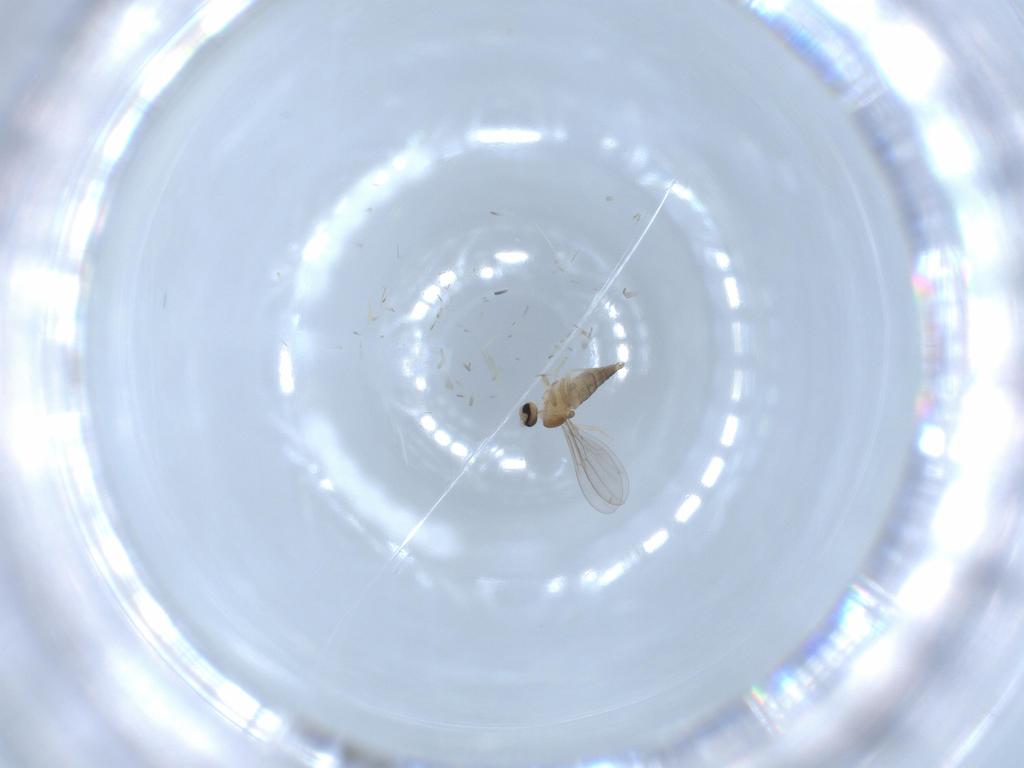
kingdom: Animalia
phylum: Arthropoda
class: Insecta
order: Diptera
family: Cecidomyiidae
